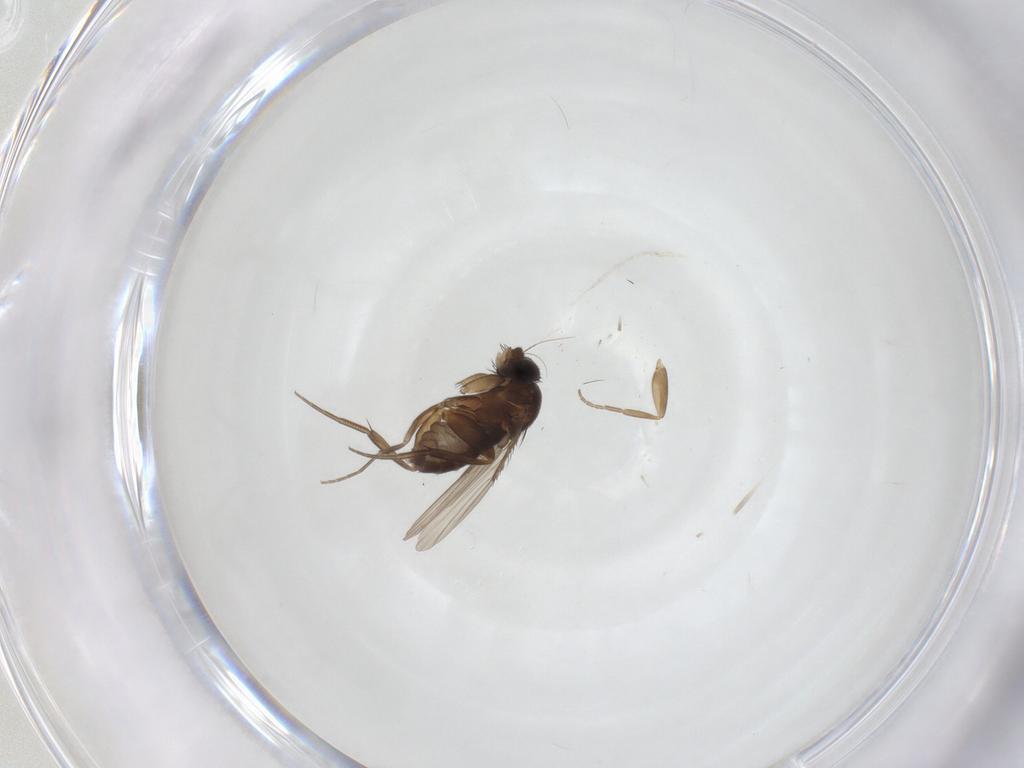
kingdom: Animalia
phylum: Arthropoda
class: Insecta
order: Diptera
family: Phoridae
